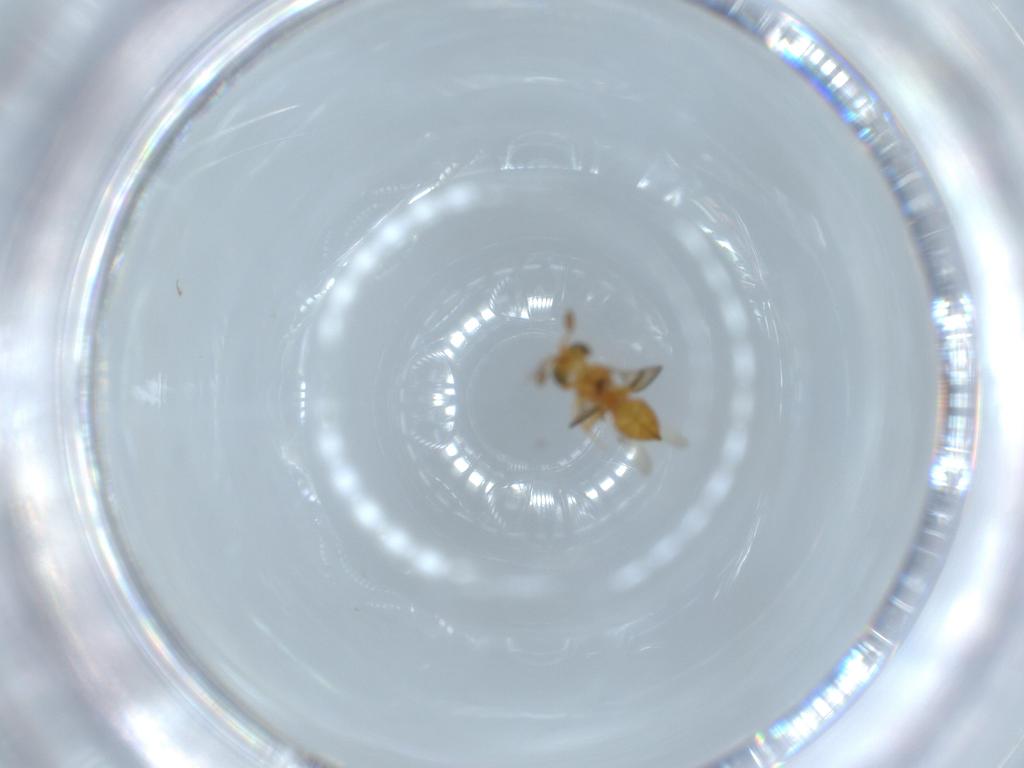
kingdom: Animalia
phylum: Arthropoda
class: Insecta
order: Hymenoptera
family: Scelionidae
